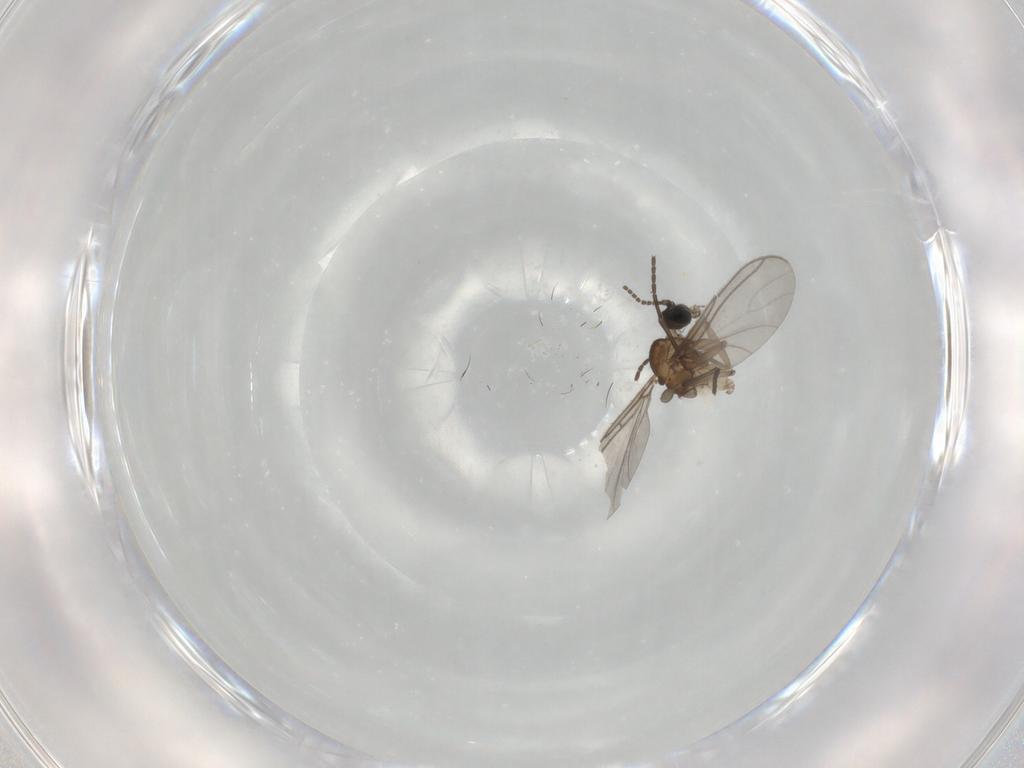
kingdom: Animalia
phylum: Arthropoda
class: Insecta
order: Diptera
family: Sciaridae
